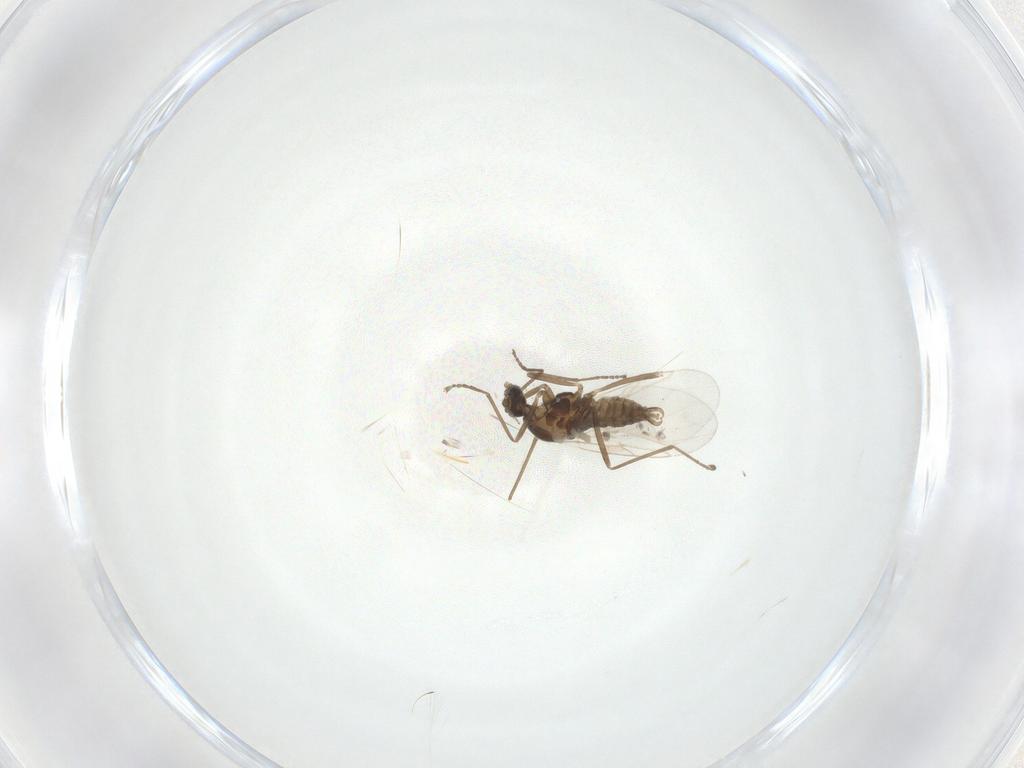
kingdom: Animalia
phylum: Arthropoda
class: Insecta
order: Diptera
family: Cecidomyiidae
